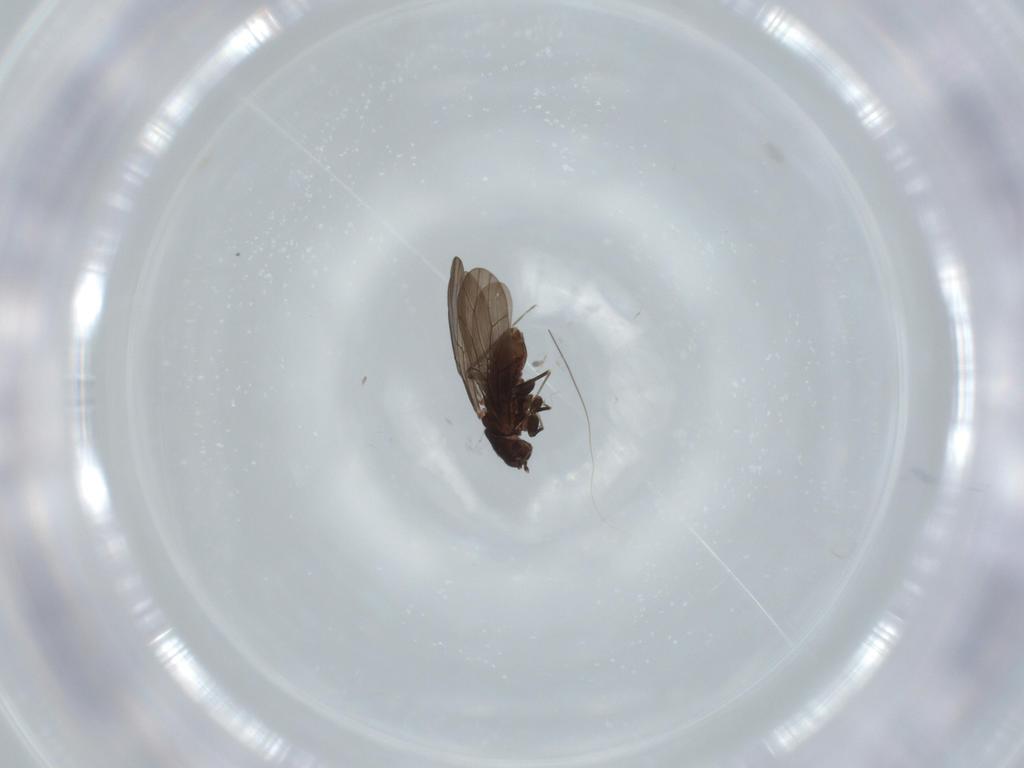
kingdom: Animalia
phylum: Arthropoda
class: Insecta
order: Psocodea
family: Lepidopsocidae
